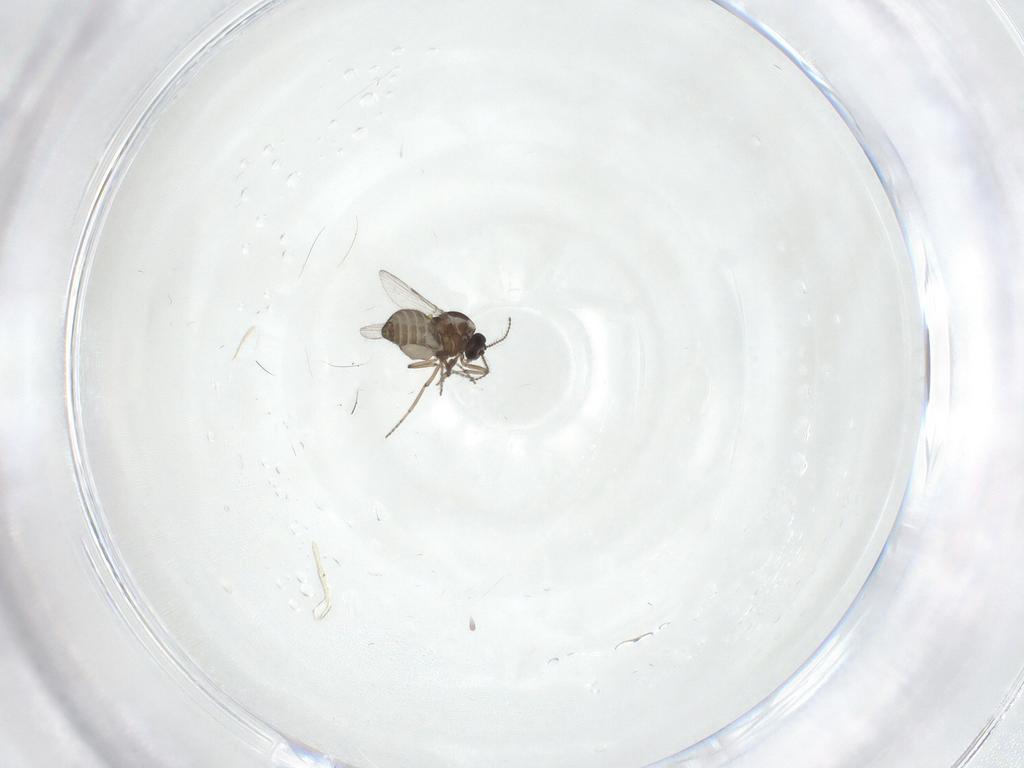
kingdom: Animalia
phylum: Arthropoda
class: Insecta
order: Diptera
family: Ceratopogonidae
